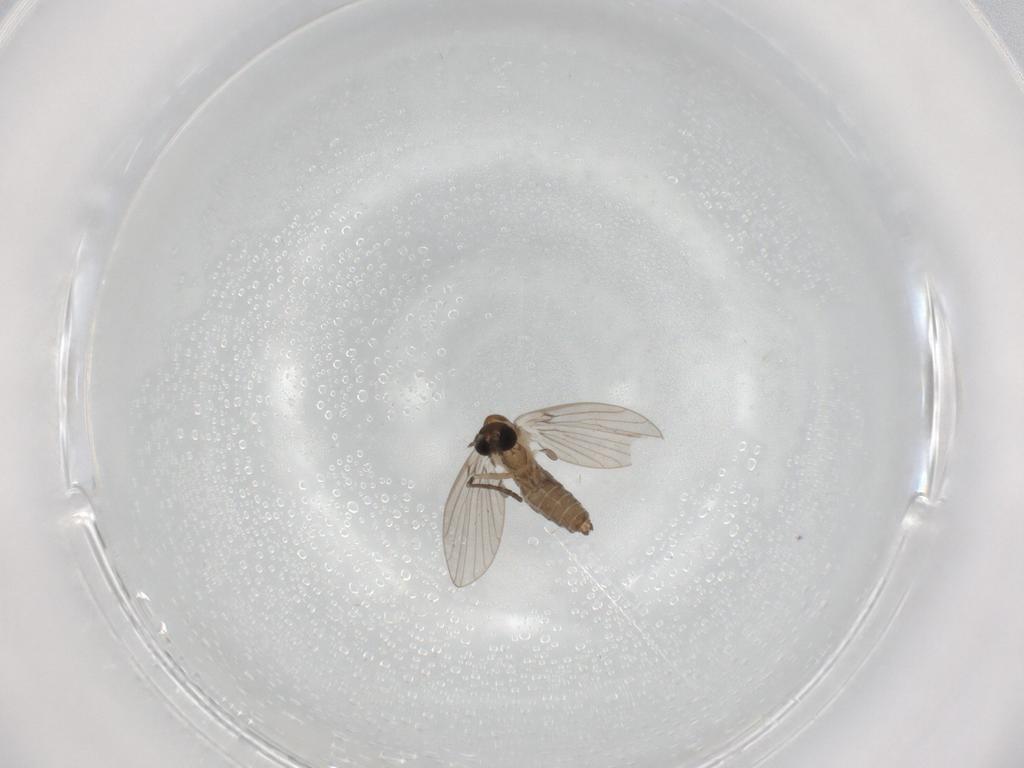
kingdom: Animalia
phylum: Arthropoda
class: Insecta
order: Diptera
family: Psychodidae
